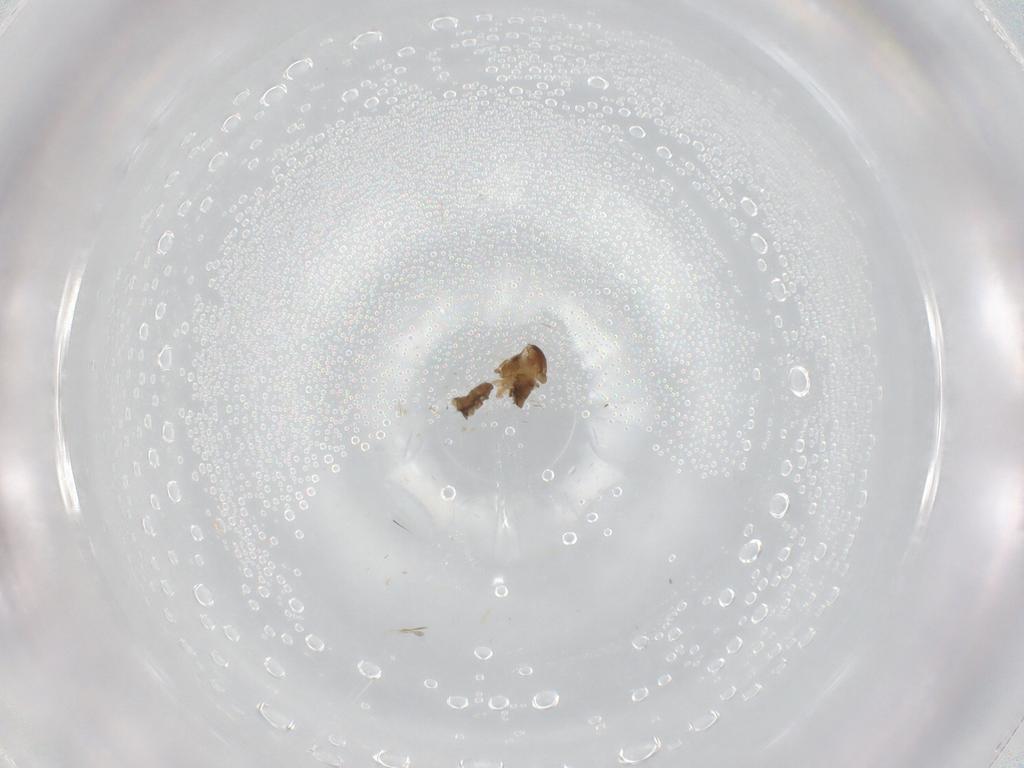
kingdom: Animalia
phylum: Arthropoda
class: Insecta
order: Diptera
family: Cecidomyiidae
